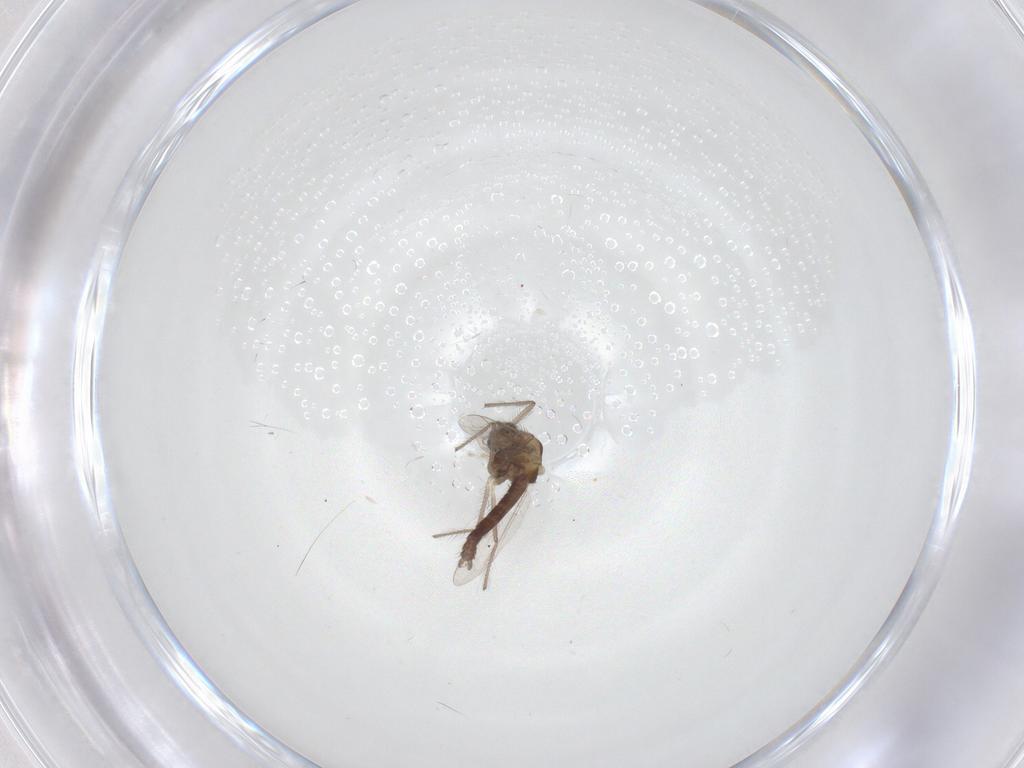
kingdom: Animalia
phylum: Arthropoda
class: Insecta
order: Diptera
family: Chironomidae
